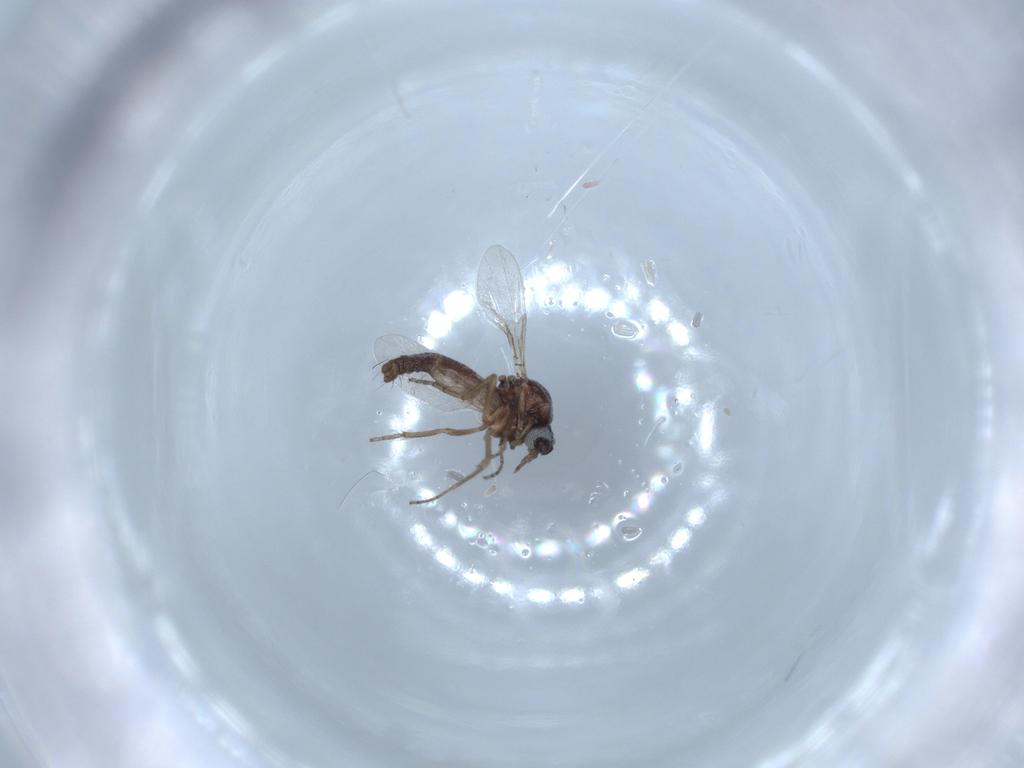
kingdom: Animalia
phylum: Arthropoda
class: Insecta
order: Diptera
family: Ceratopogonidae
